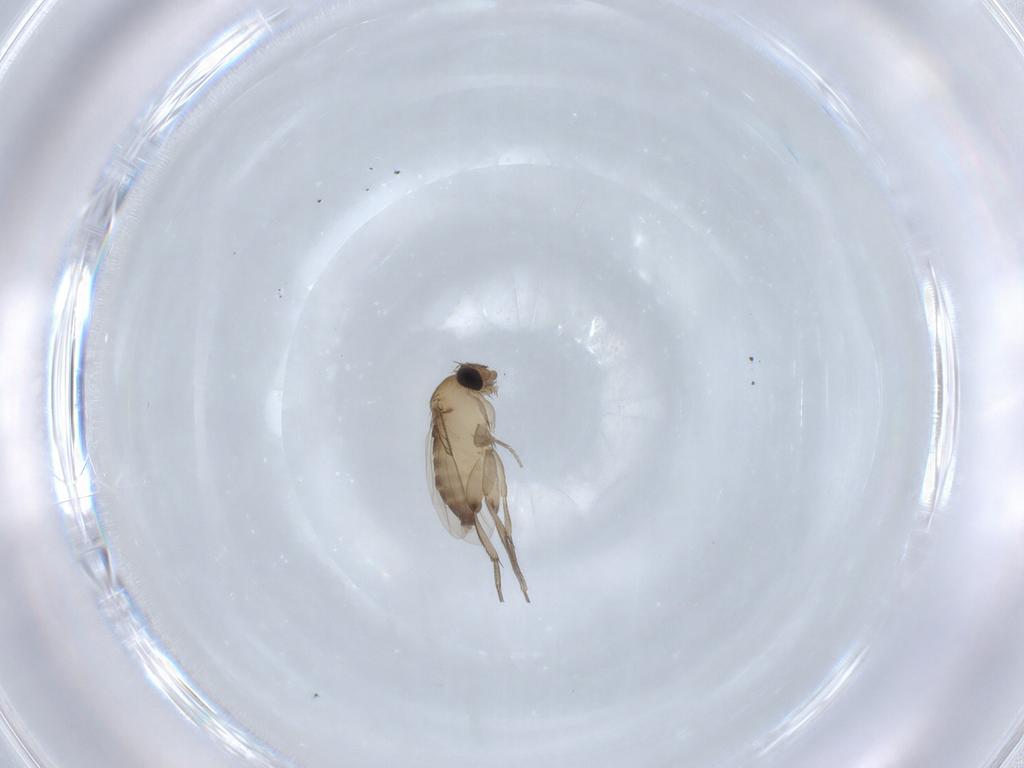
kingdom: Animalia
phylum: Arthropoda
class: Insecta
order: Diptera
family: Phoridae
